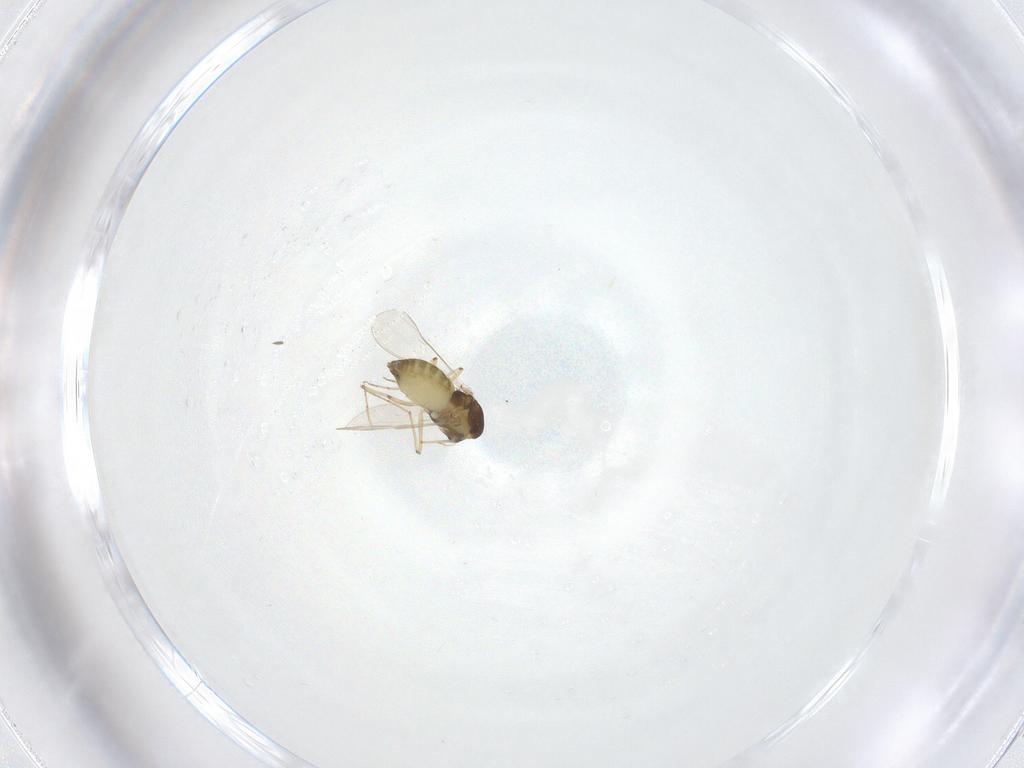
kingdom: Animalia
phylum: Arthropoda
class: Insecta
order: Diptera
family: Chironomidae
